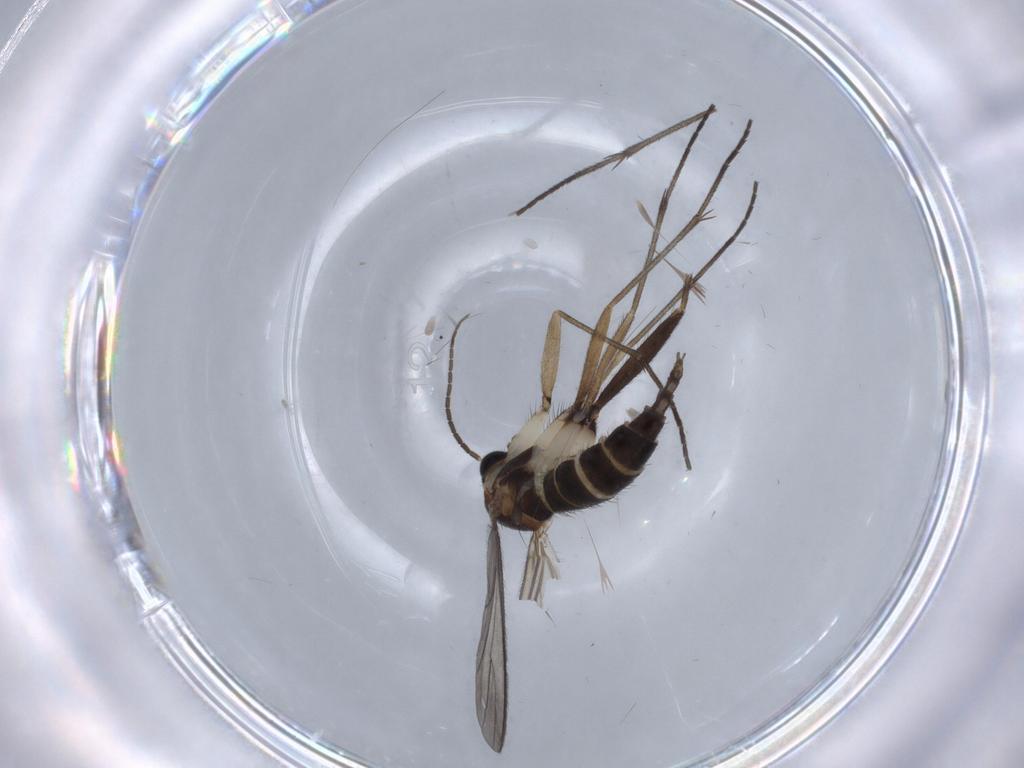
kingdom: Animalia
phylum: Arthropoda
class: Insecta
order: Diptera
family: Sciaridae
